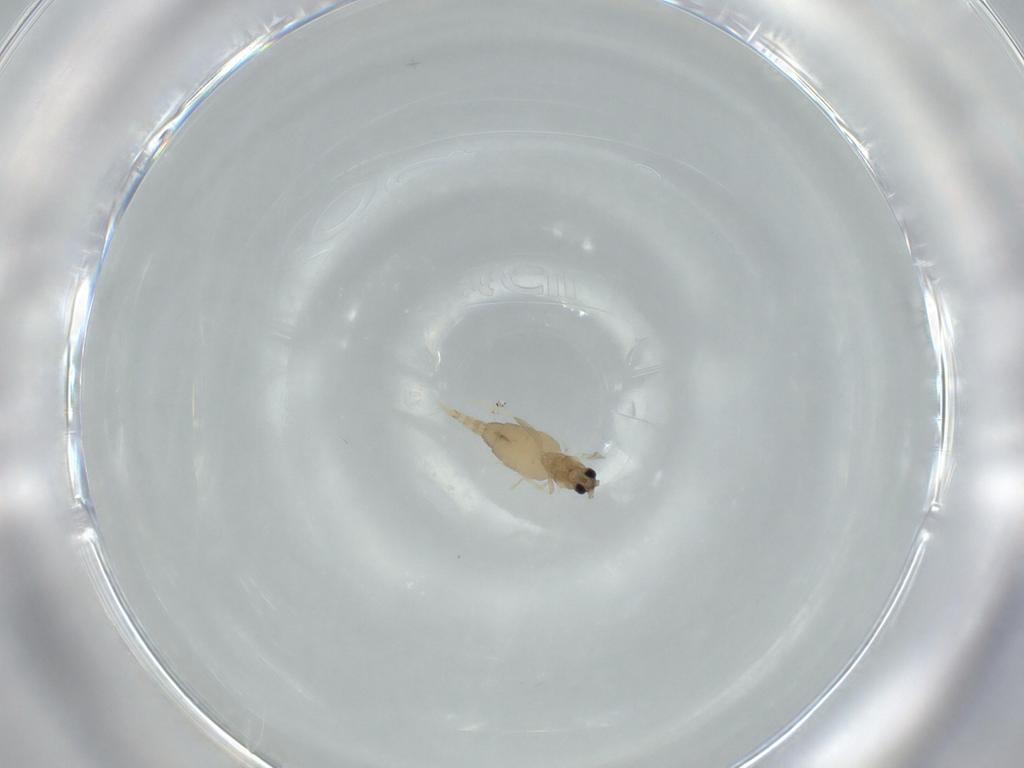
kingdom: Animalia
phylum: Arthropoda
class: Insecta
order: Diptera
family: Cecidomyiidae
